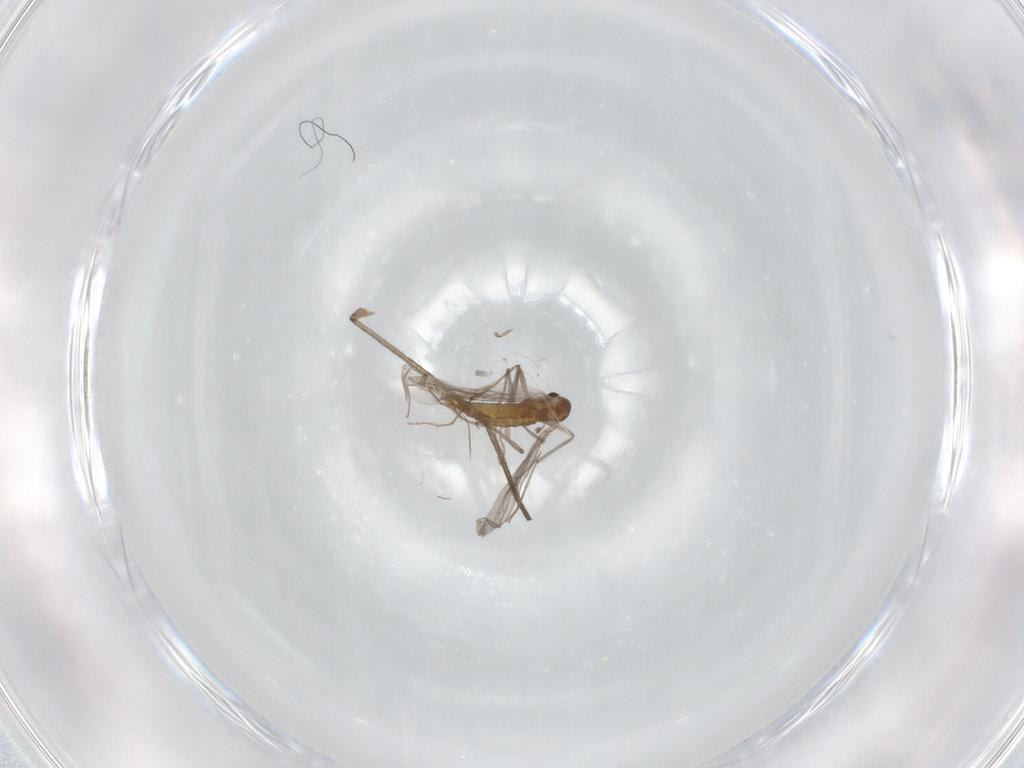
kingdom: Animalia
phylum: Arthropoda
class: Insecta
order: Diptera
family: Chironomidae
